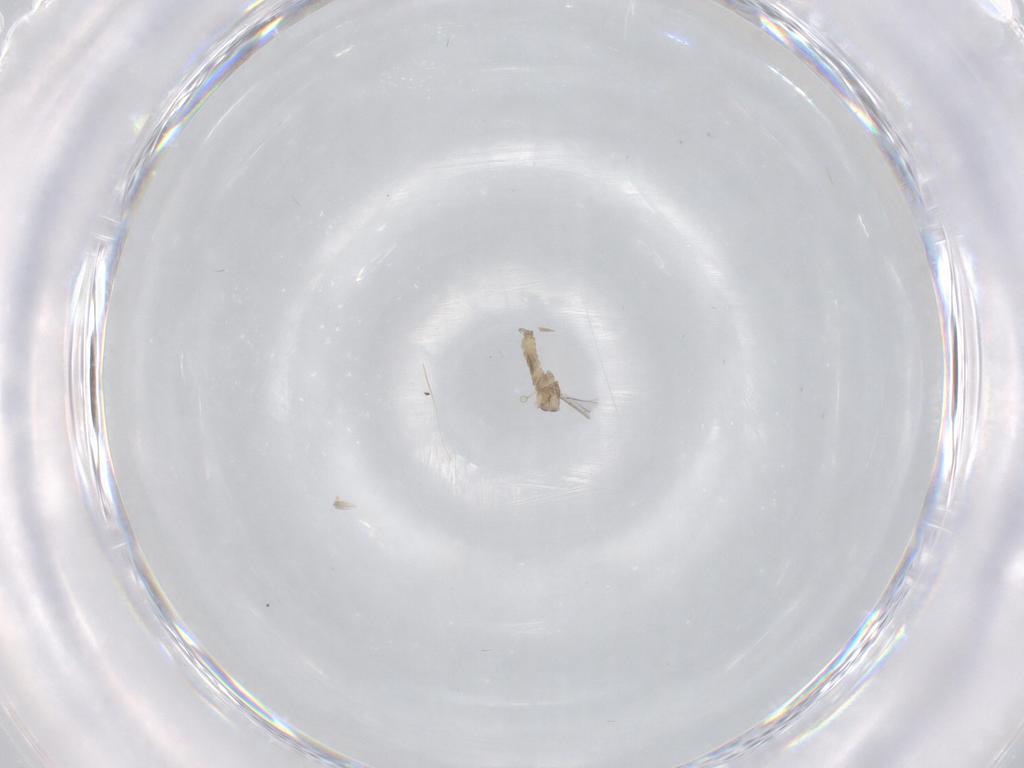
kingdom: Animalia
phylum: Arthropoda
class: Insecta
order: Diptera
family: Cecidomyiidae
